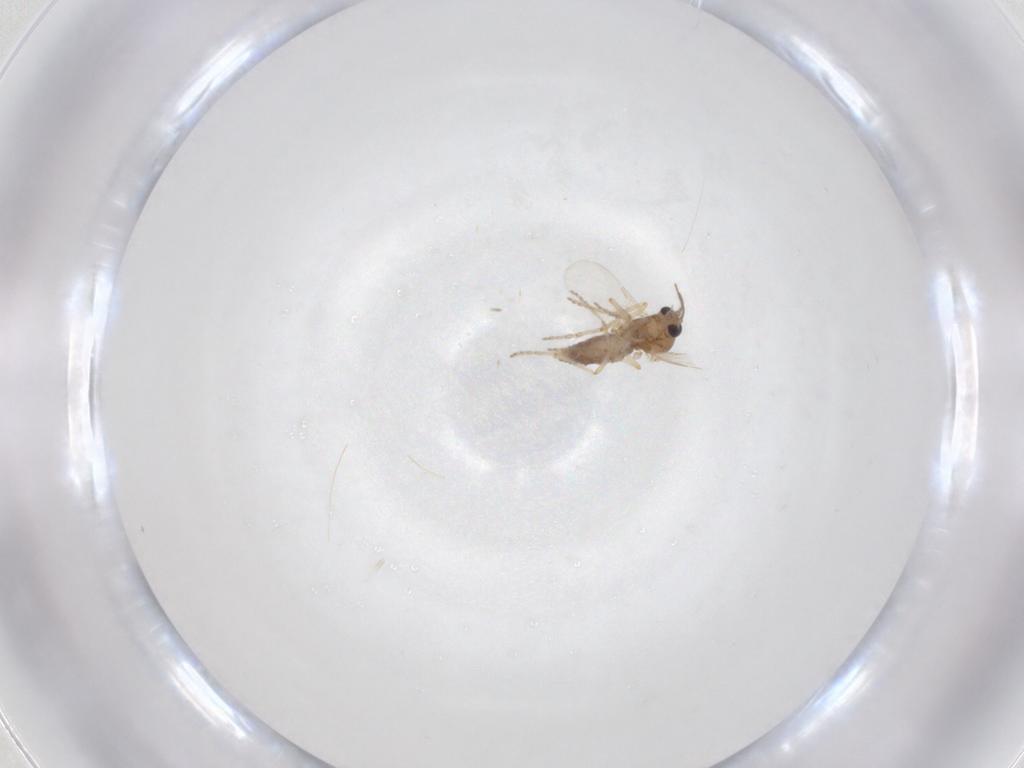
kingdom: Animalia
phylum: Arthropoda
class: Insecta
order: Diptera
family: Ceratopogonidae
